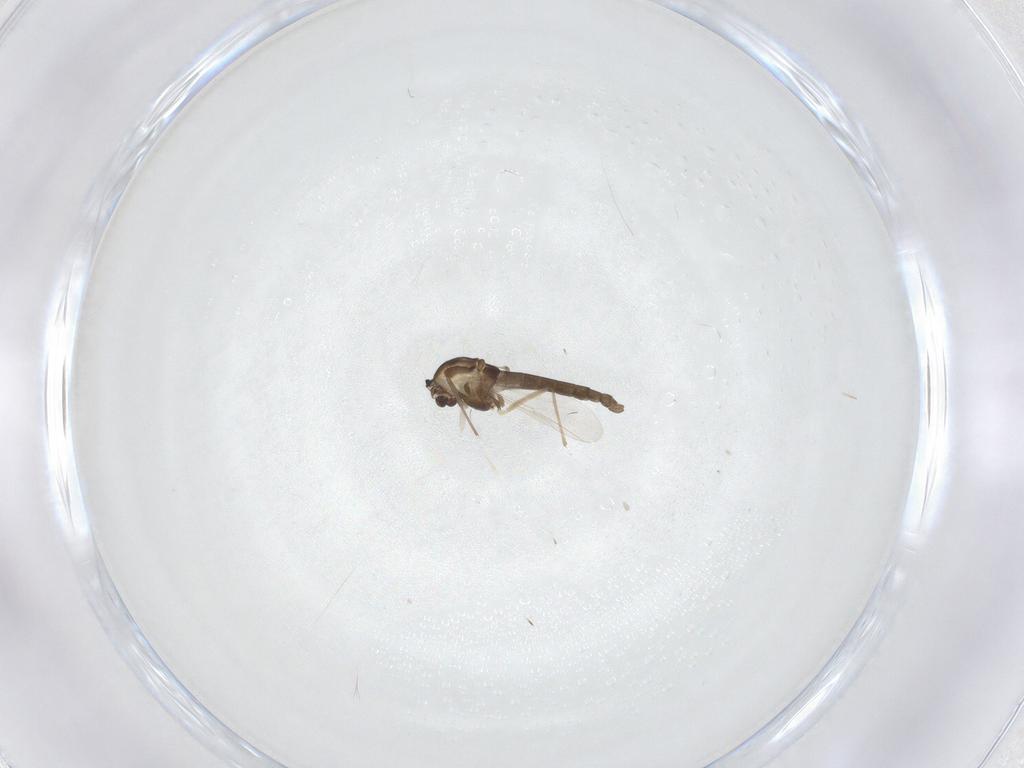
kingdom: Animalia
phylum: Arthropoda
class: Insecta
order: Diptera
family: Chironomidae
